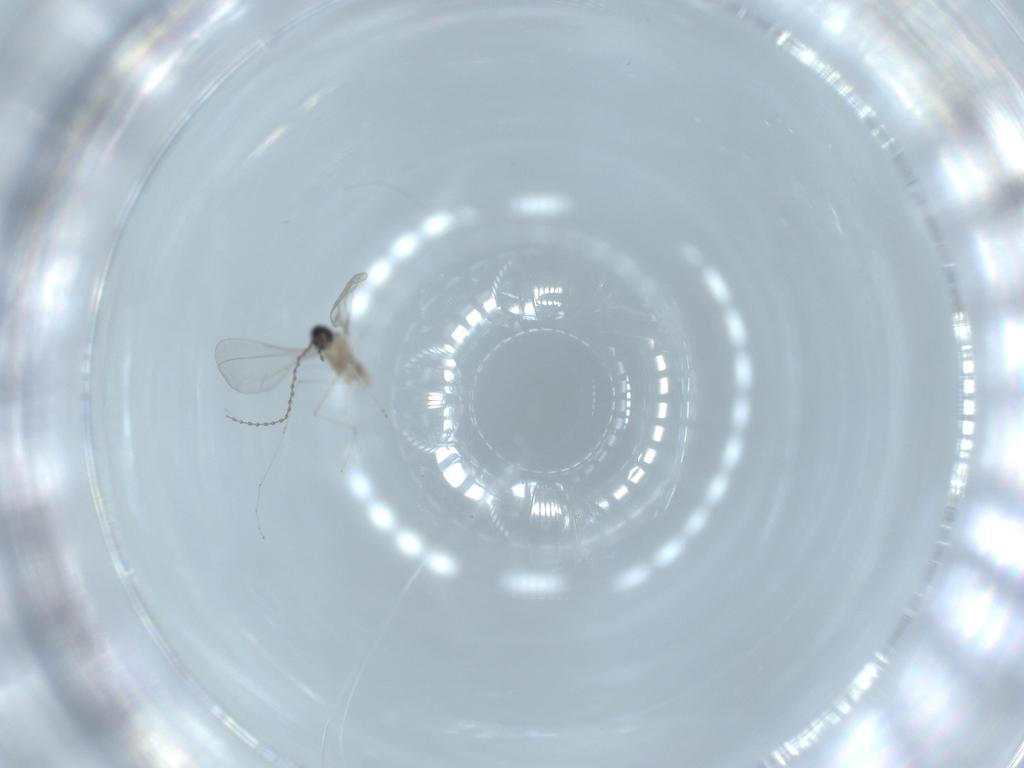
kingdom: Animalia
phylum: Arthropoda
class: Insecta
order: Diptera
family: Cecidomyiidae
